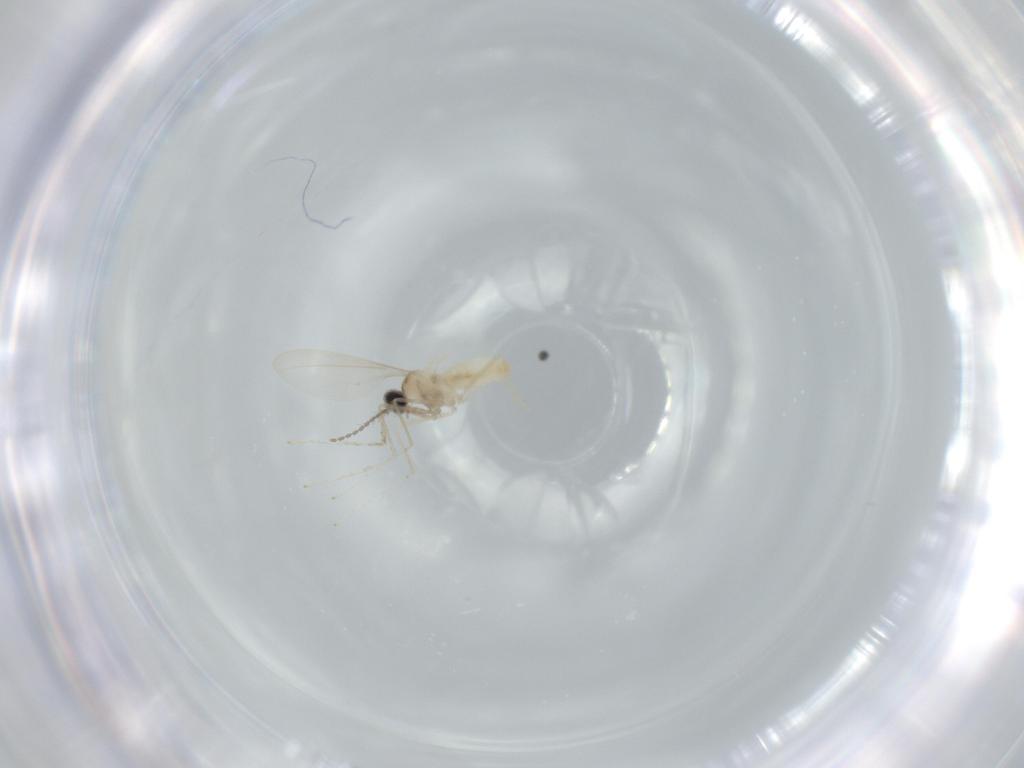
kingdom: Animalia
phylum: Arthropoda
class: Insecta
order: Diptera
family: Cecidomyiidae
